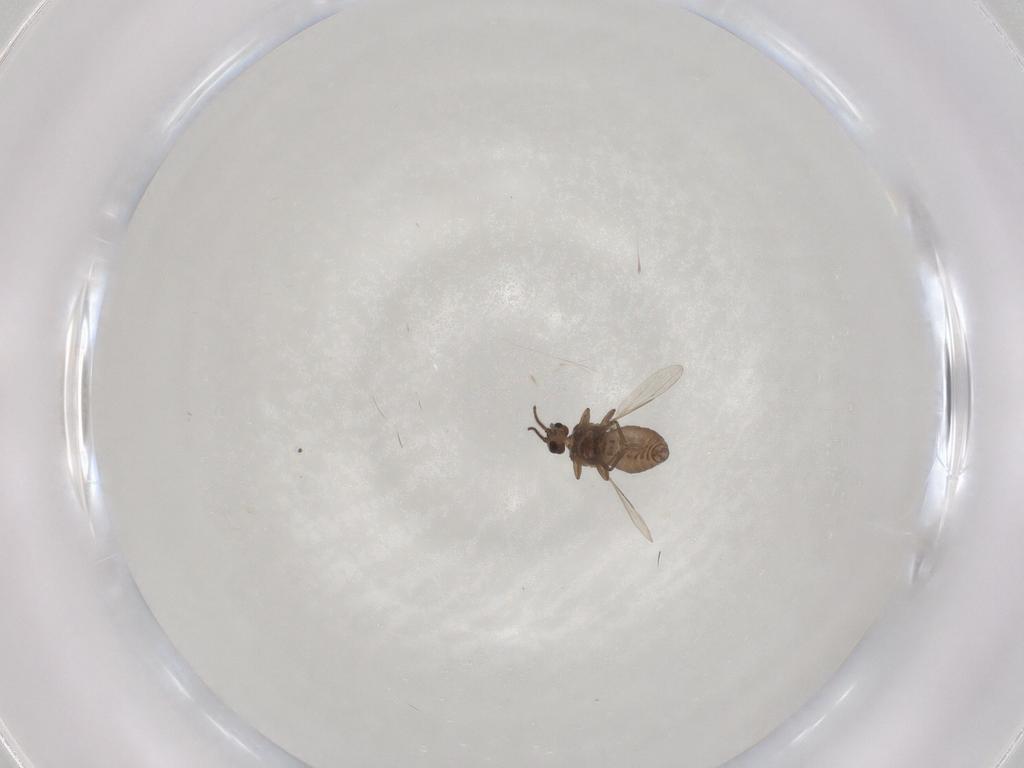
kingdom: Animalia
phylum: Arthropoda
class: Insecta
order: Diptera
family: Ceratopogonidae
